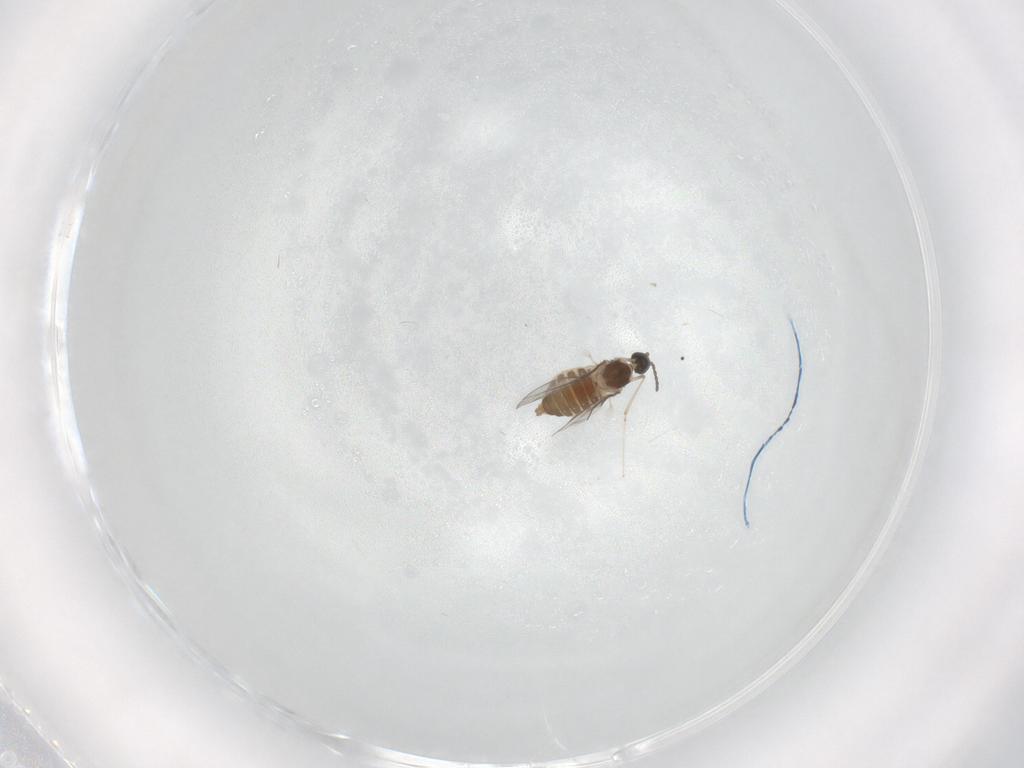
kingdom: Animalia
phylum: Arthropoda
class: Insecta
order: Diptera
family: Cecidomyiidae
